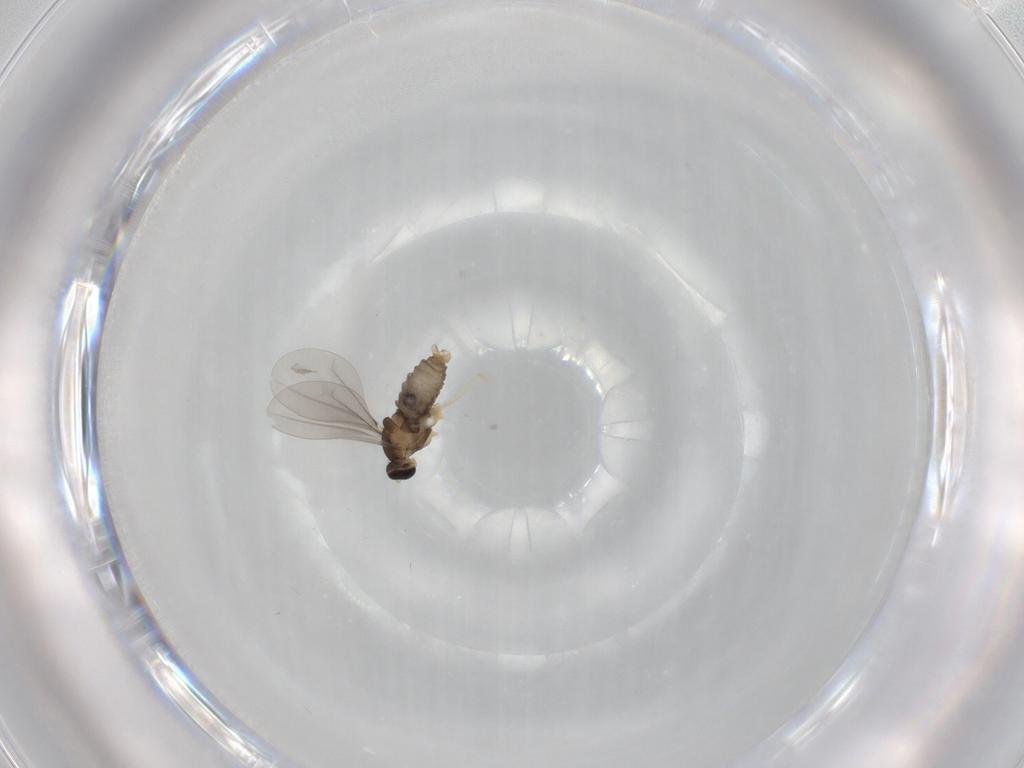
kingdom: Animalia
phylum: Arthropoda
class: Insecta
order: Diptera
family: Cecidomyiidae
